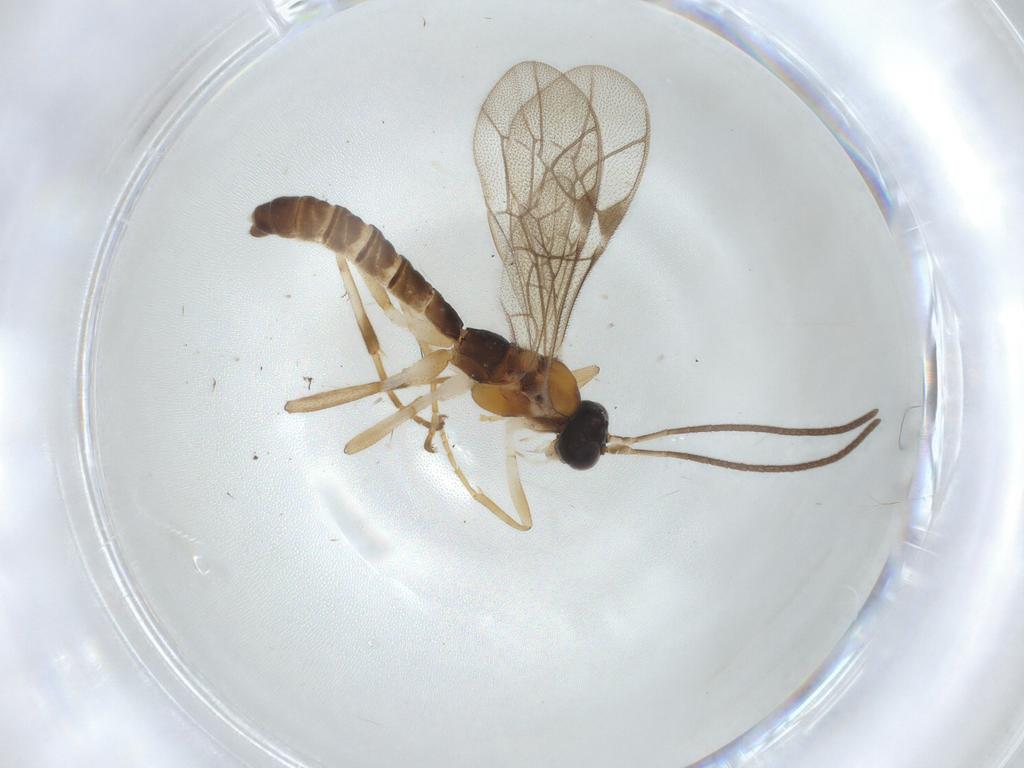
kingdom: Animalia
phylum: Arthropoda
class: Insecta
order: Hymenoptera
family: Ichneumonidae
